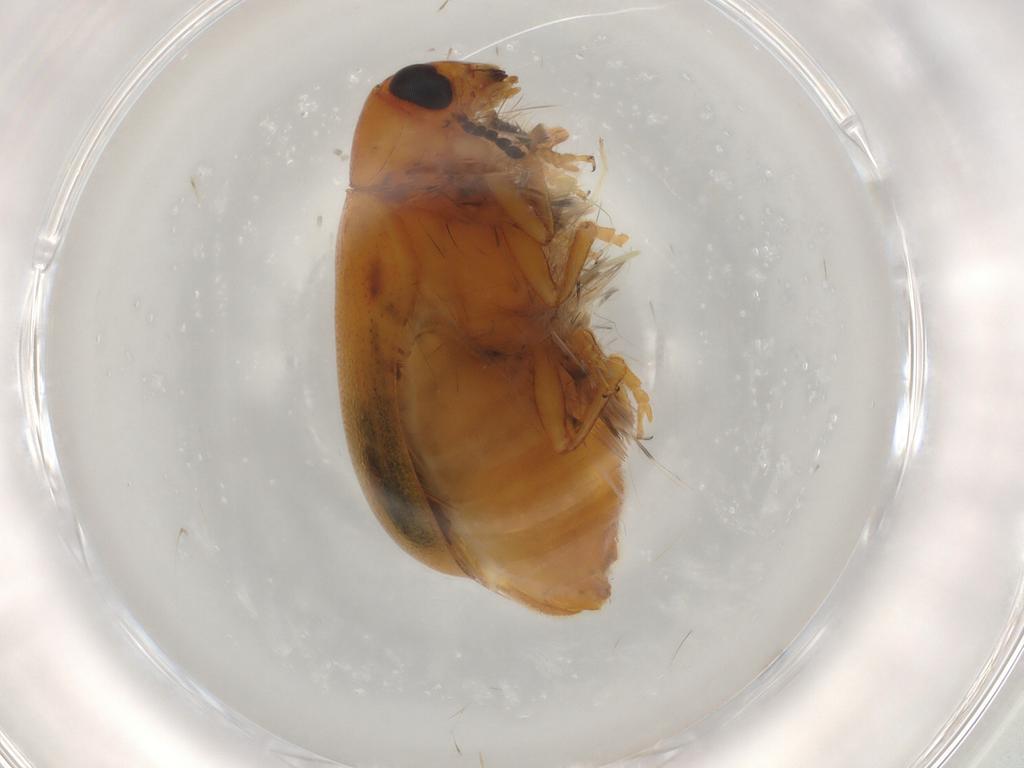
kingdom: Animalia
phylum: Arthropoda
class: Insecta
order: Coleoptera
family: Chrysomelidae
